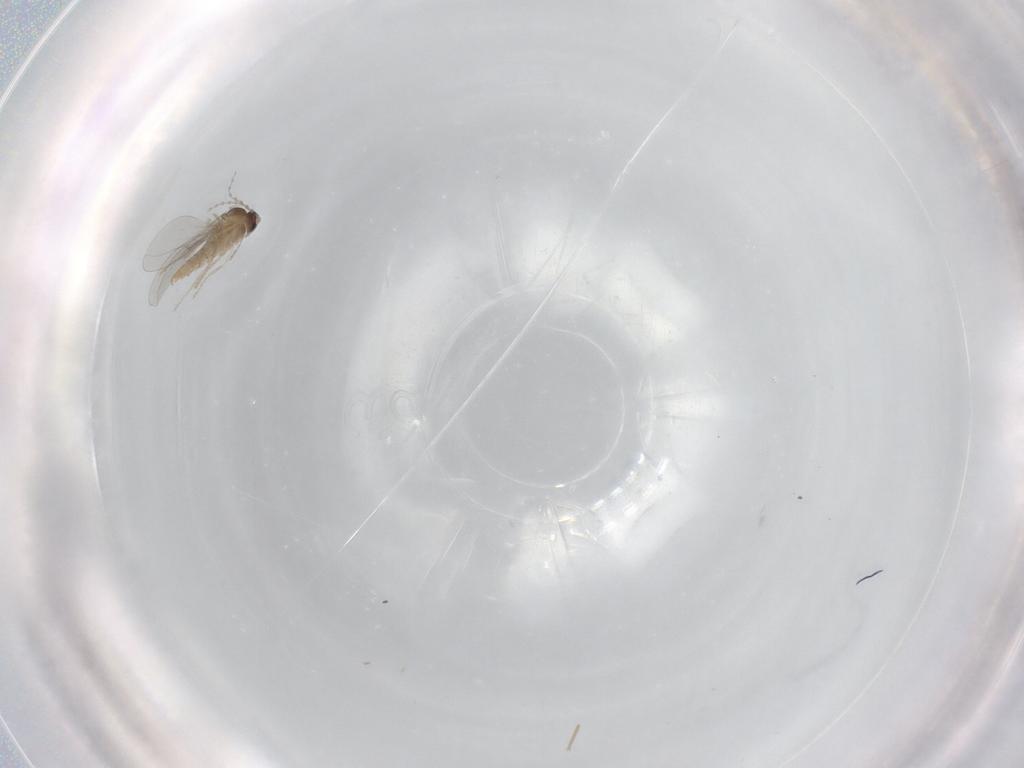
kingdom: Animalia
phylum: Arthropoda
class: Insecta
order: Diptera
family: Cecidomyiidae
